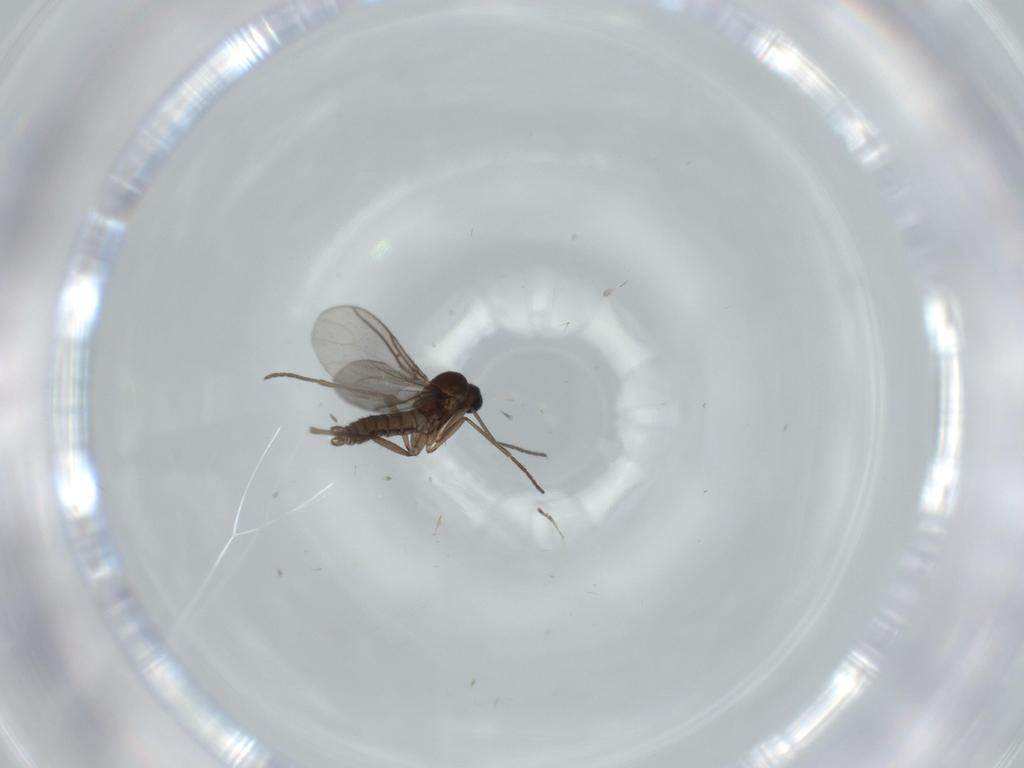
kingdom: Animalia
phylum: Arthropoda
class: Insecta
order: Diptera
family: Cecidomyiidae
